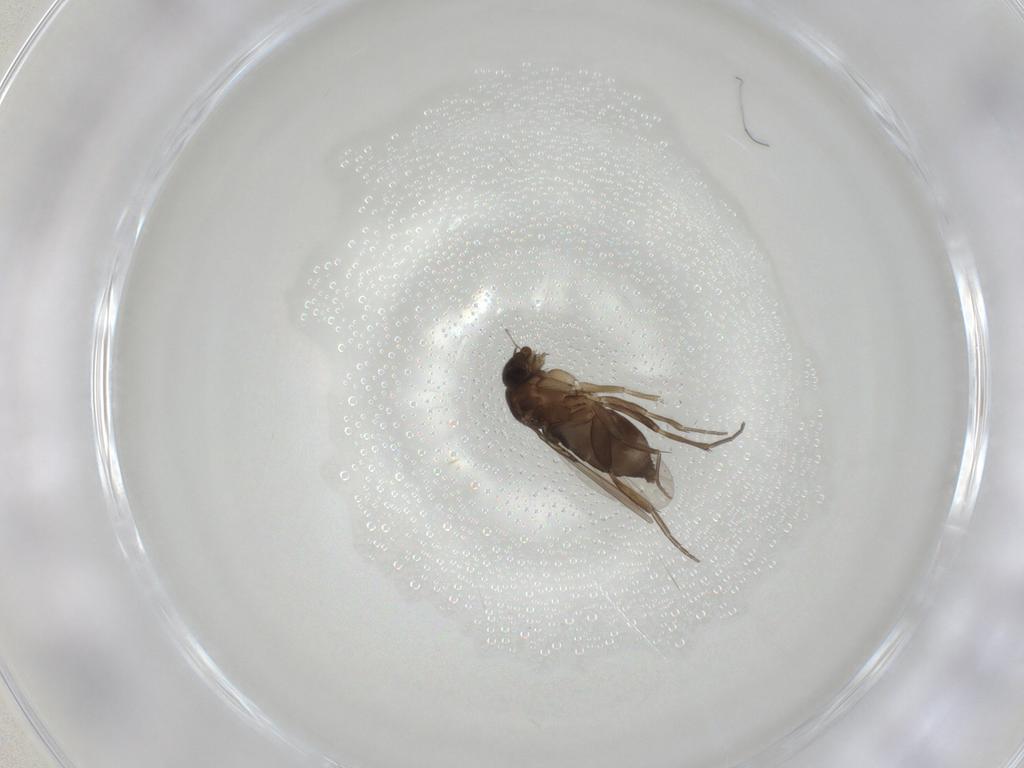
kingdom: Animalia
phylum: Arthropoda
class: Insecta
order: Diptera
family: Phoridae
